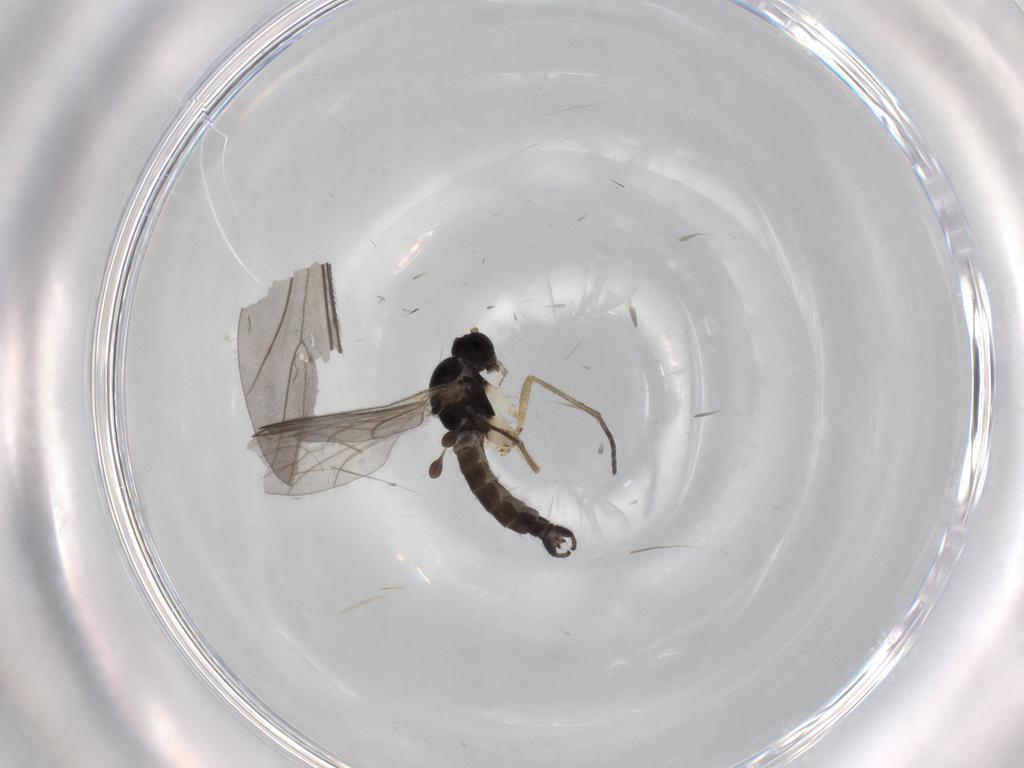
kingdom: Animalia
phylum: Arthropoda
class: Insecta
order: Diptera
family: Sciaridae
